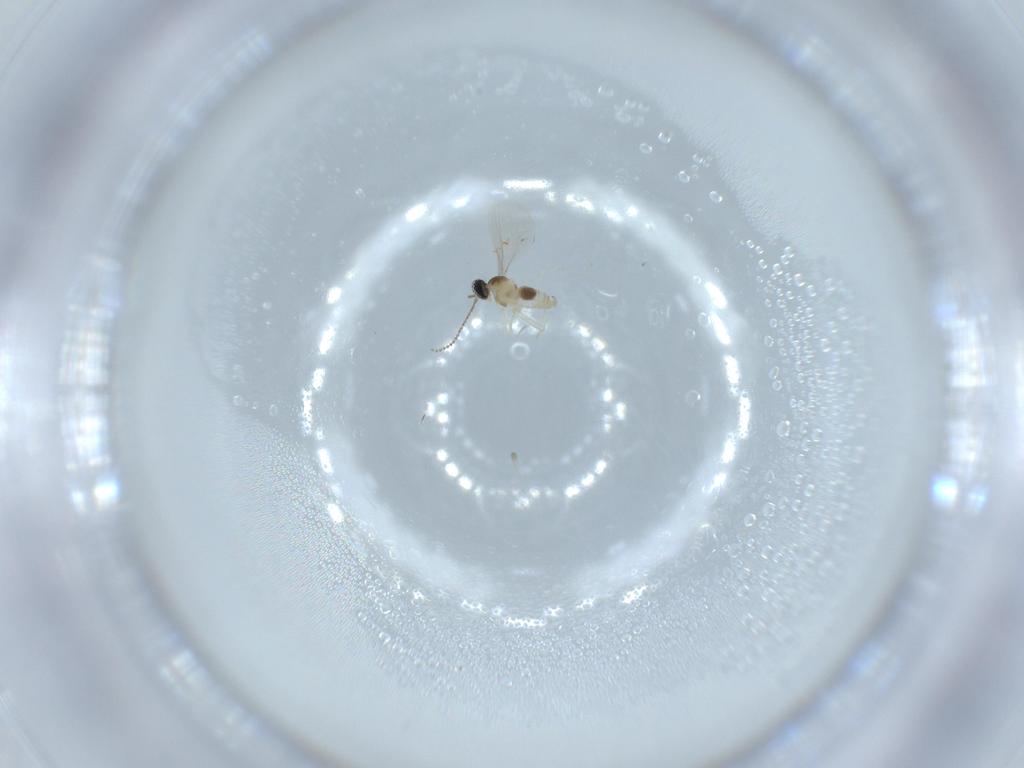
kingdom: Animalia
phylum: Arthropoda
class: Insecta
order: Diptera
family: Cecidomyiidae
